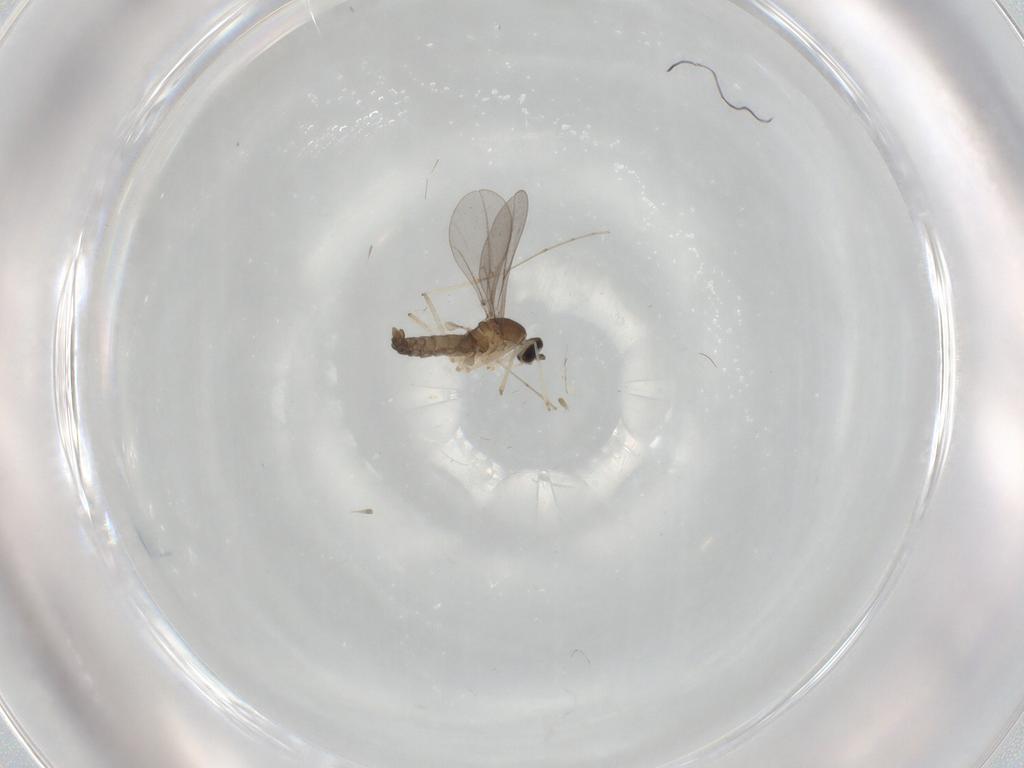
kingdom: Animalia
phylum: Arthropoda
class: Insecta
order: Diptera
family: Cecidomyiidae
